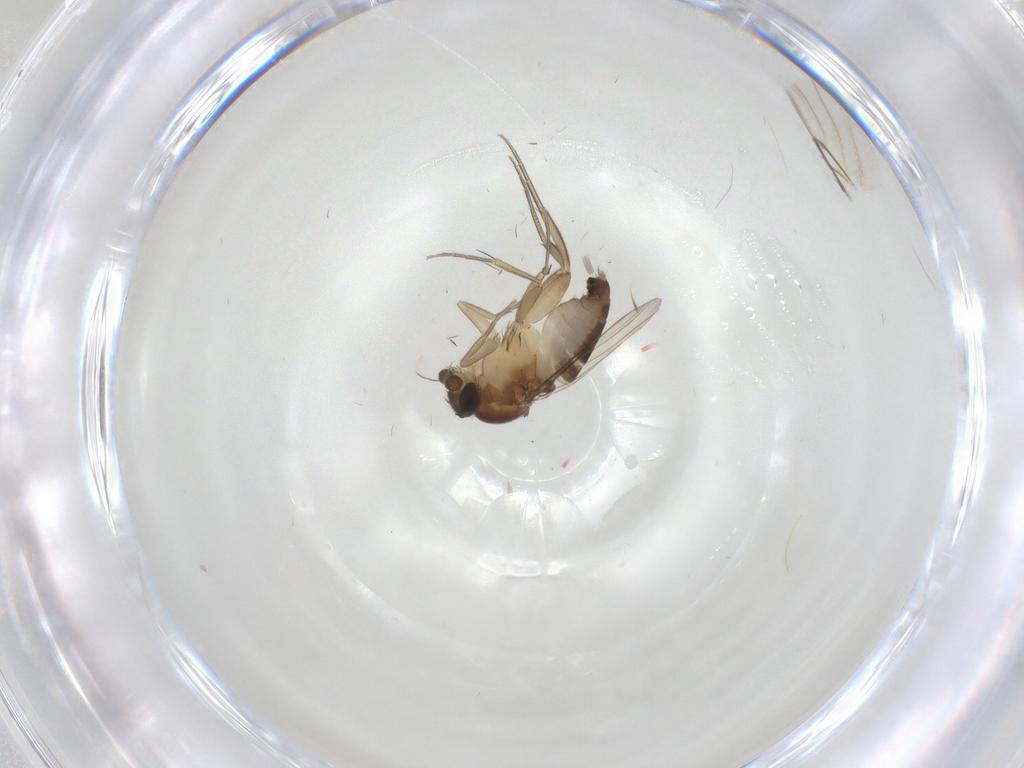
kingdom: Animalia
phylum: Arthropoda
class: Insecta
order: Diptera
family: Phoridae
